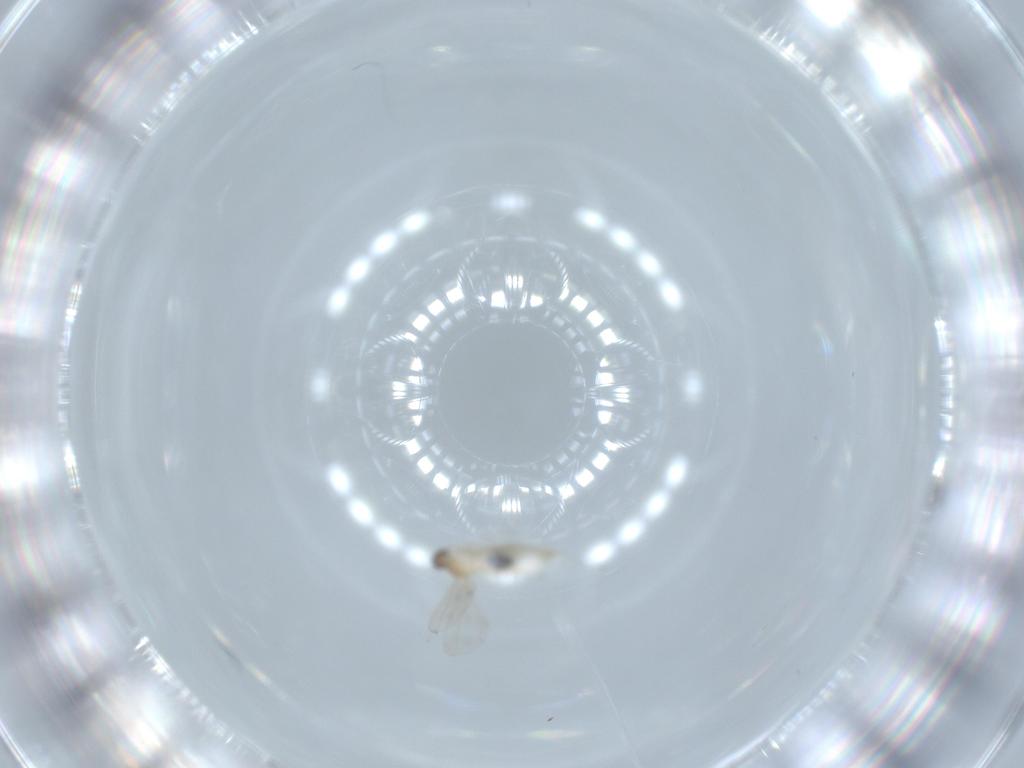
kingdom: Animalia
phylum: Arthropoda
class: Insecta
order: Diptera
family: Cecidomyiidae
